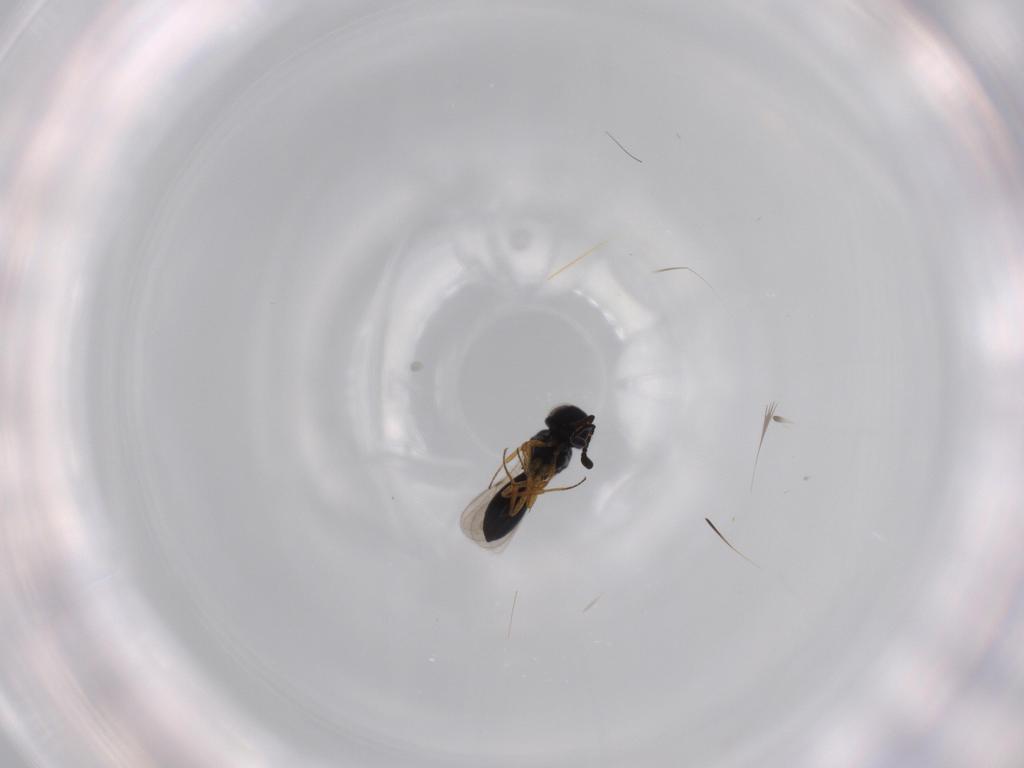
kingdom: Animalia
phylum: Arthropoda
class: Insecta
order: Hymenoptera
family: Scelionidae
